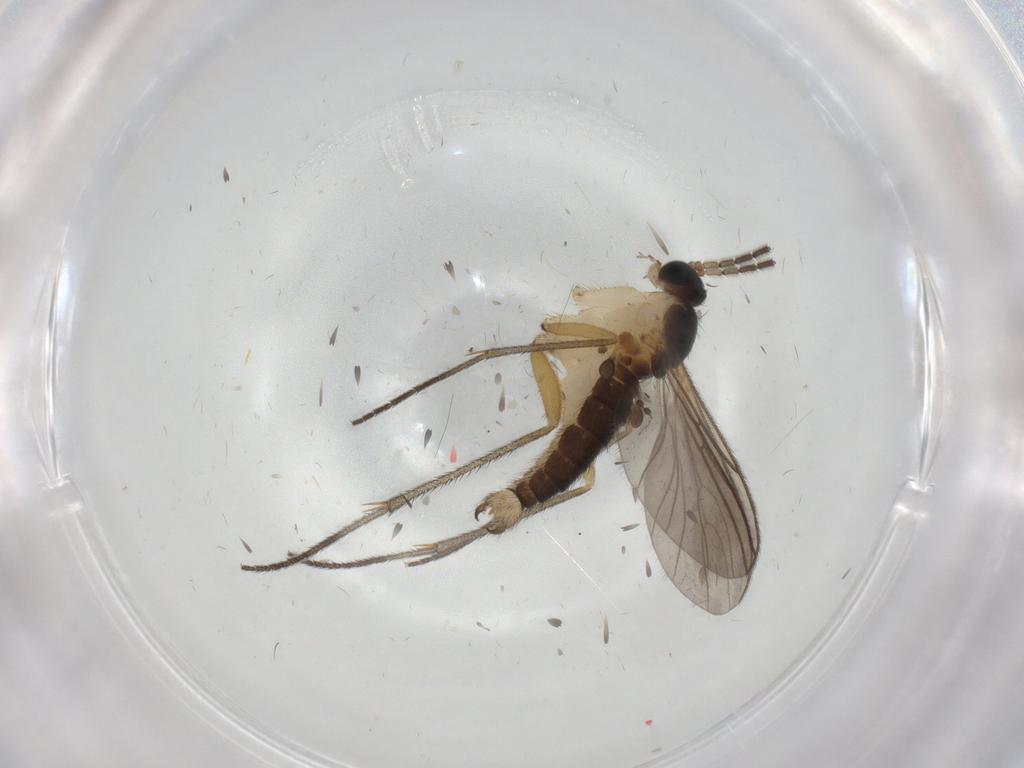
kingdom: Animalia
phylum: Arthropoda
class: Insecta
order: Diptera
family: Sciaridae
